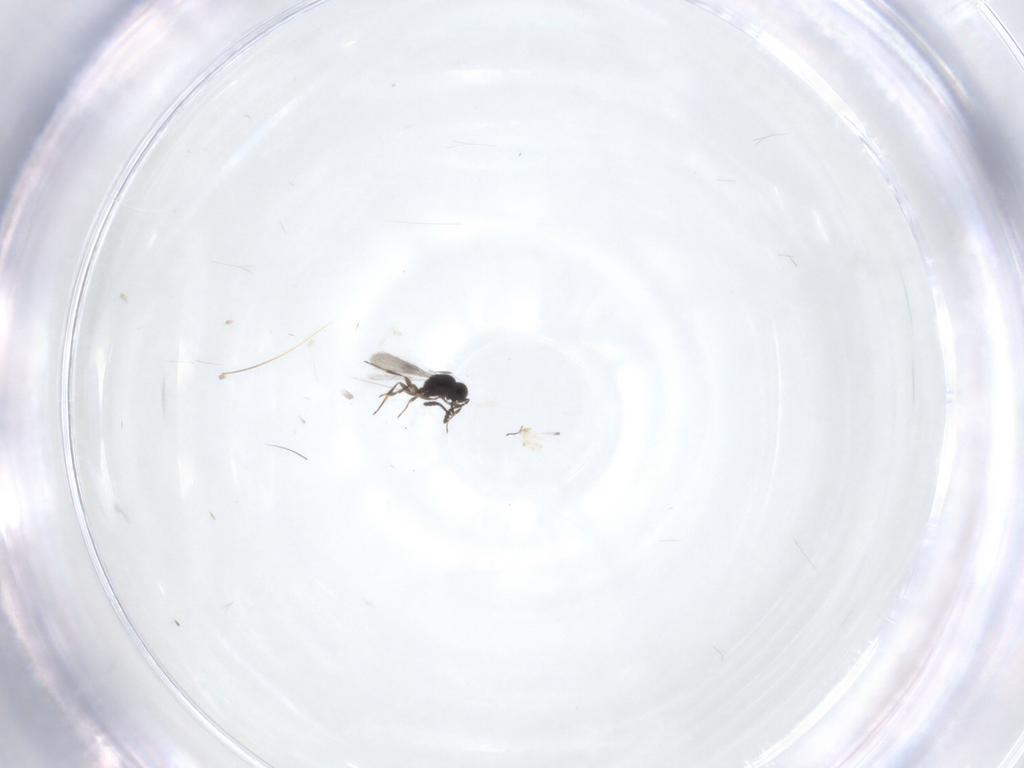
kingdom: Animalia
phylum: Arthropoda
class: Insecta
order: Hymenoptera
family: Scelionidae
